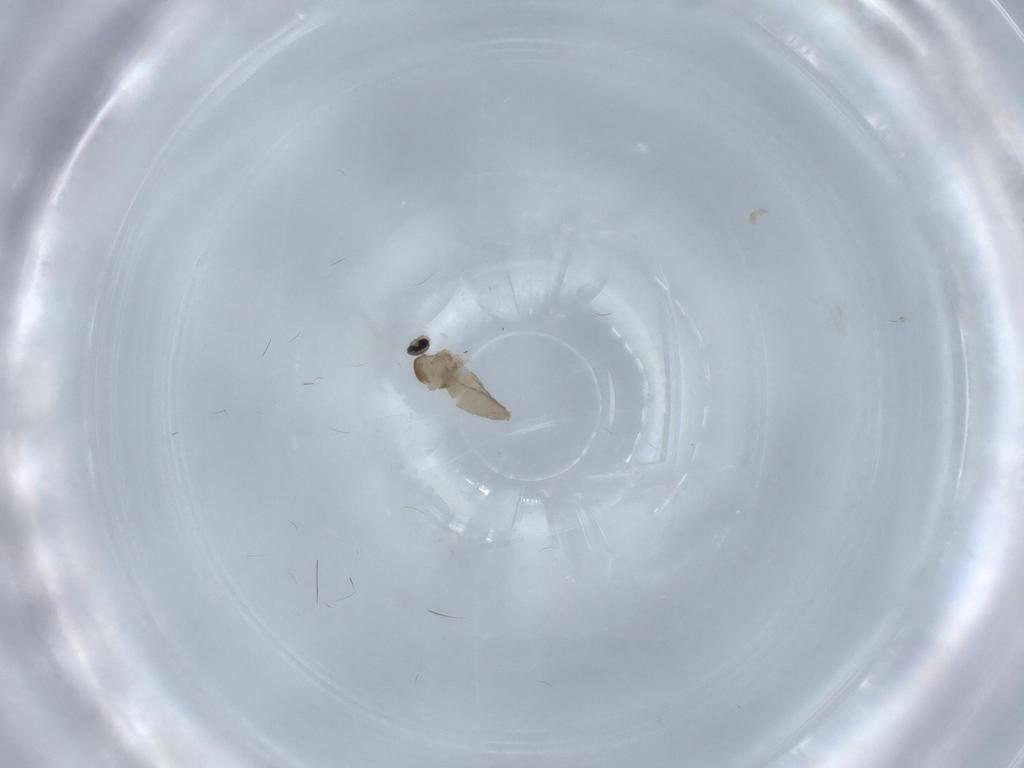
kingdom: Animalia
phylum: Arthropoda
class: Insecta
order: Diptera
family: Cecidomyiidae
